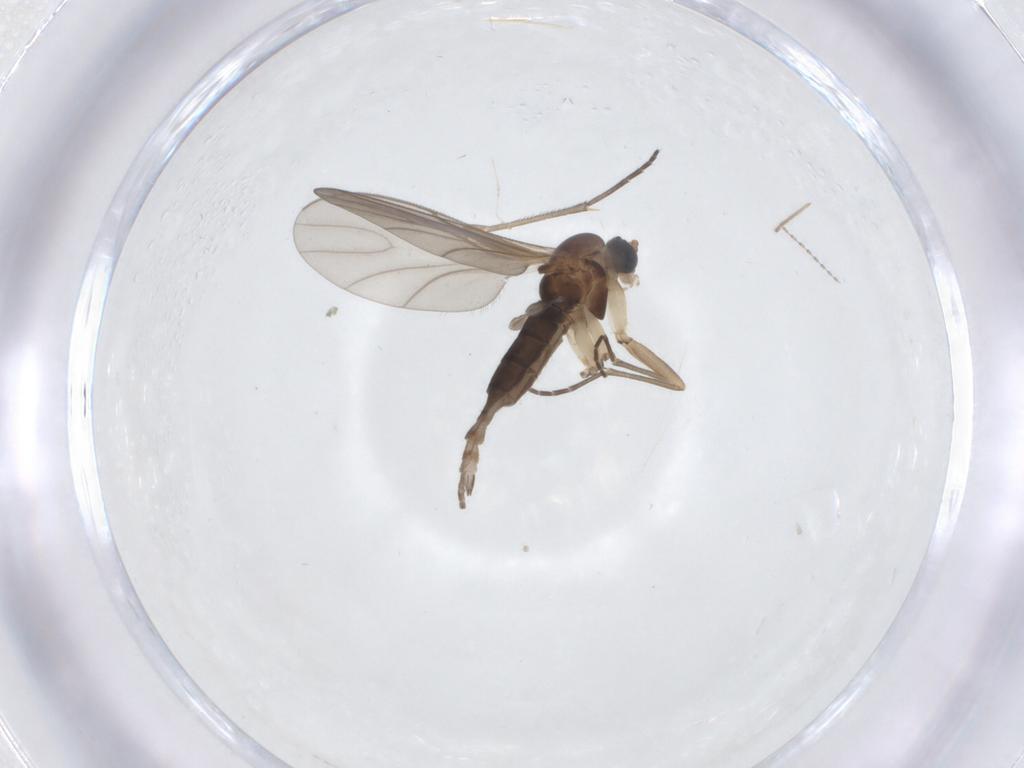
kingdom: Animalia
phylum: Arthropoda
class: Insecta
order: Diptera
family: Sciaridae
